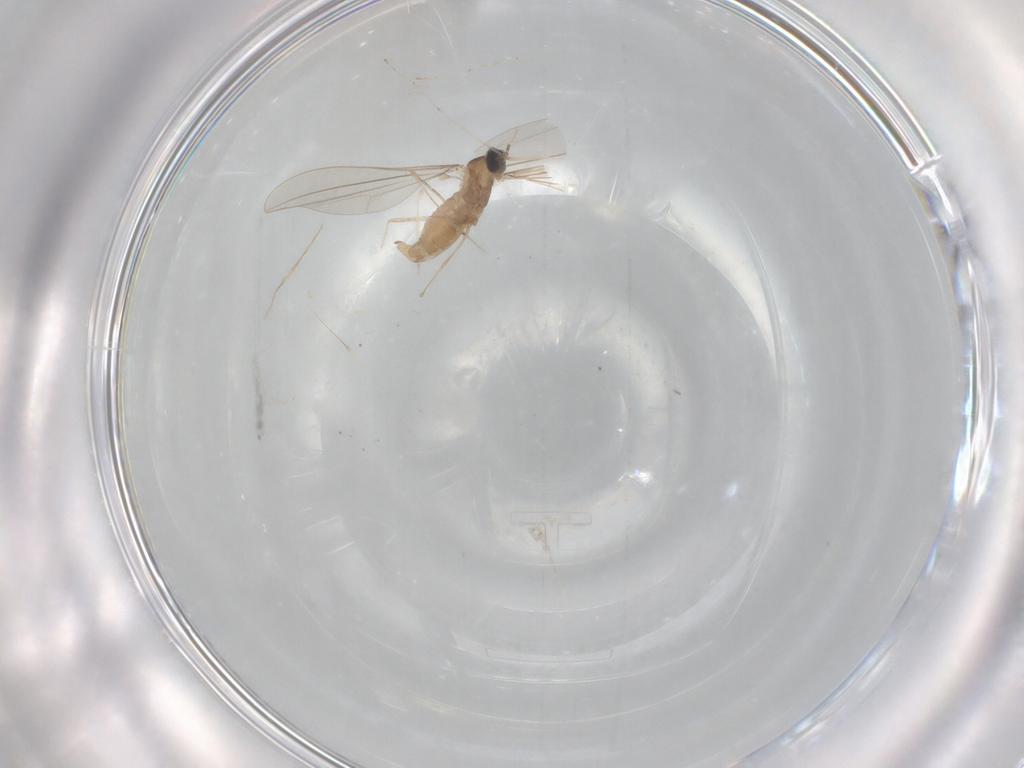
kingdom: Animalia
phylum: Arthropoda
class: Insecta
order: Diptera
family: Cecidomyiidae
